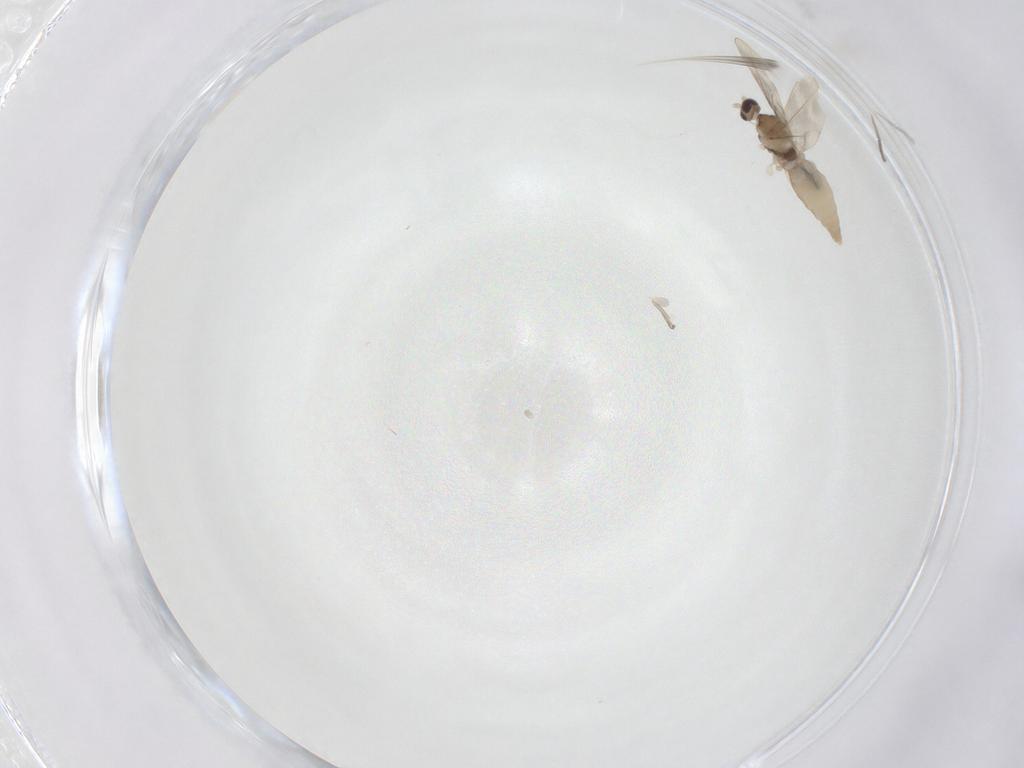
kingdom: Animalia
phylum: Arthropoda
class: Insecta
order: Diptera
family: Cecidomyiidae
